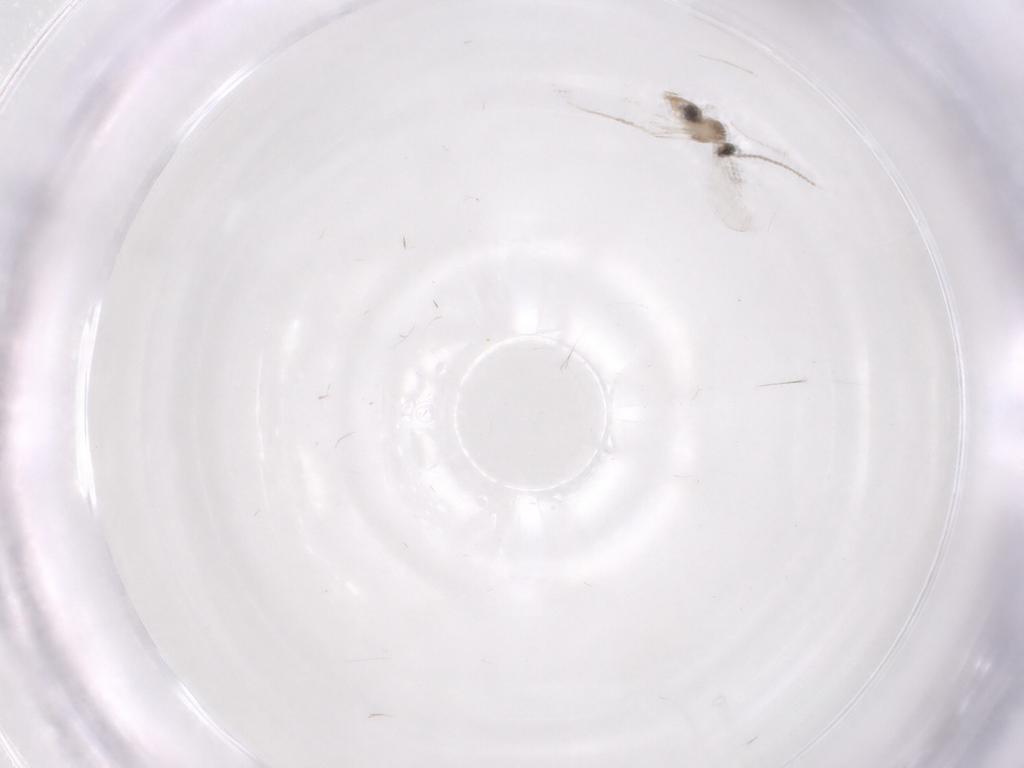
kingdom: Animalia
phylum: Arthropoda
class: Insecta
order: Diptera
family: Cecidomyiidae
